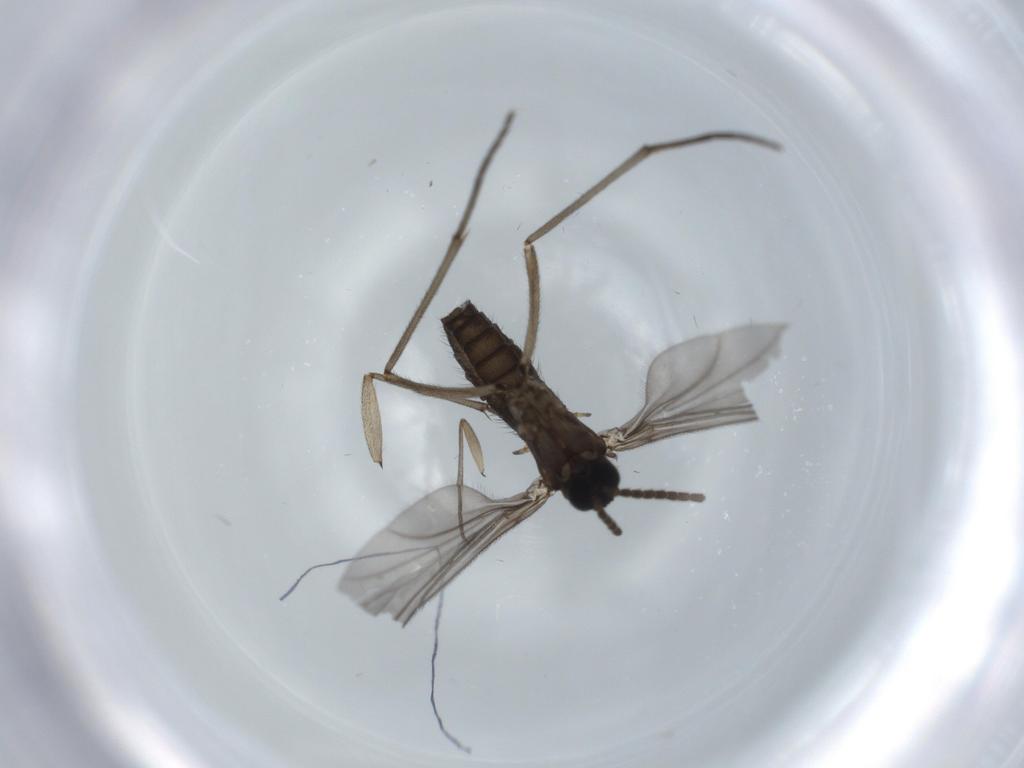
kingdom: Animalia
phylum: Arthropoda
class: Insecta
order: Diptera
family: Sciaridae
